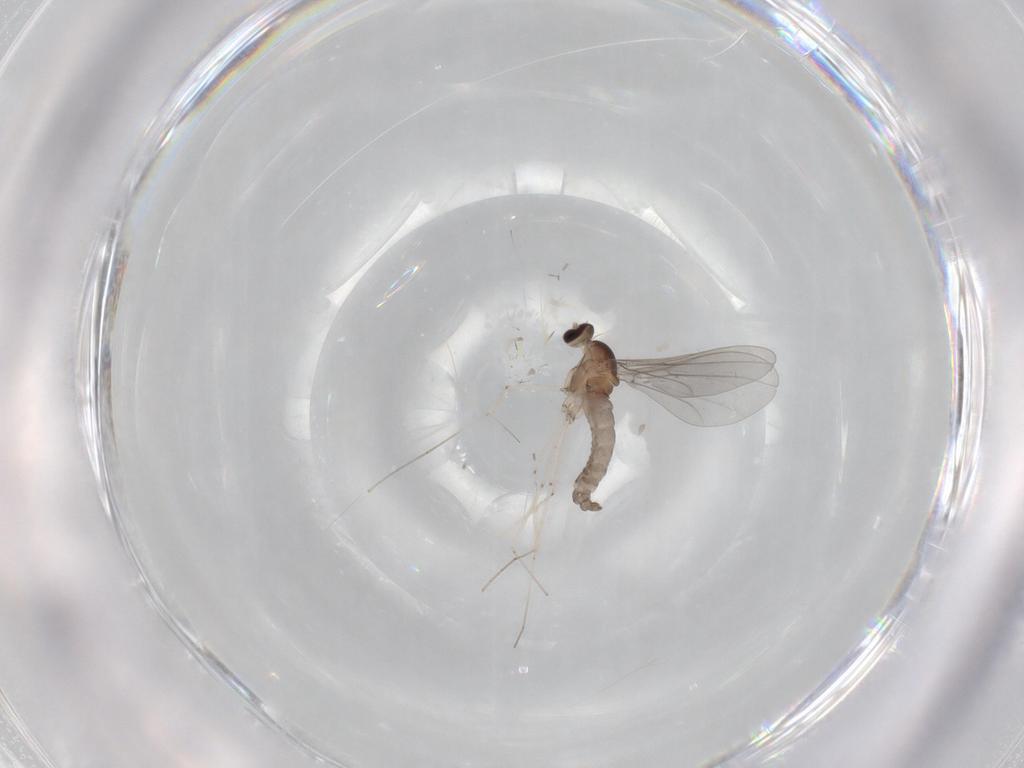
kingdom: Animalia
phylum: Arthropoda
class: Insecta
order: Diptera
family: Cecidomyiidae
